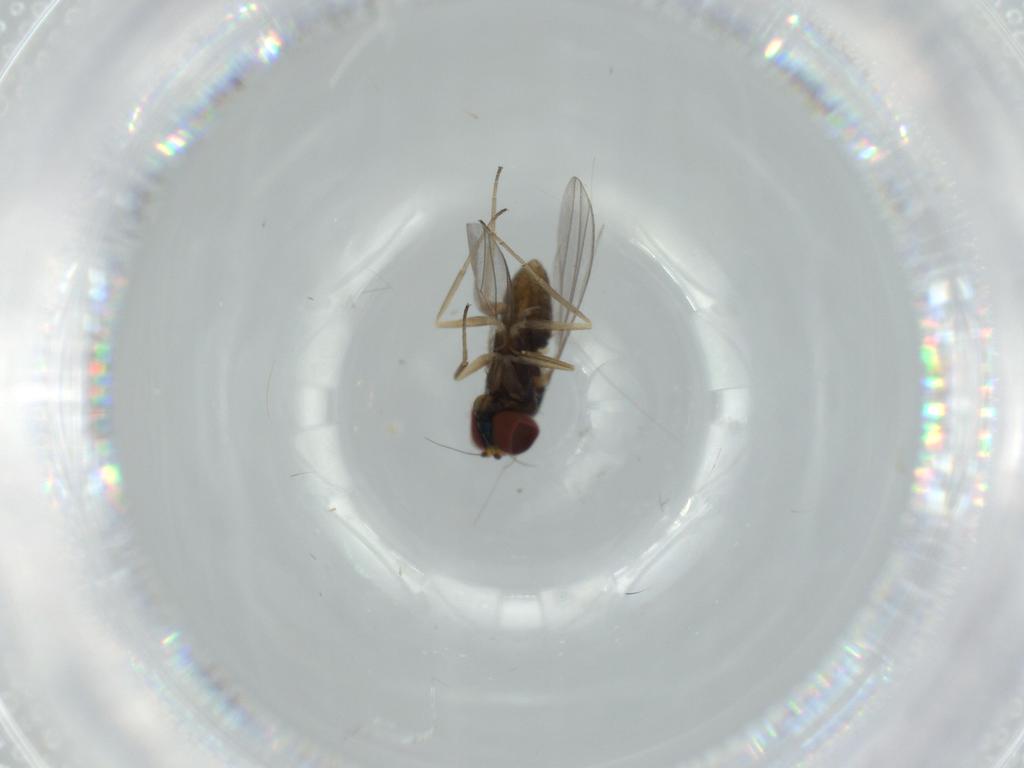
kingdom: Animalia
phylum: Arthropoda
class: Insecta
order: Diptera
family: Dolichopodidae
